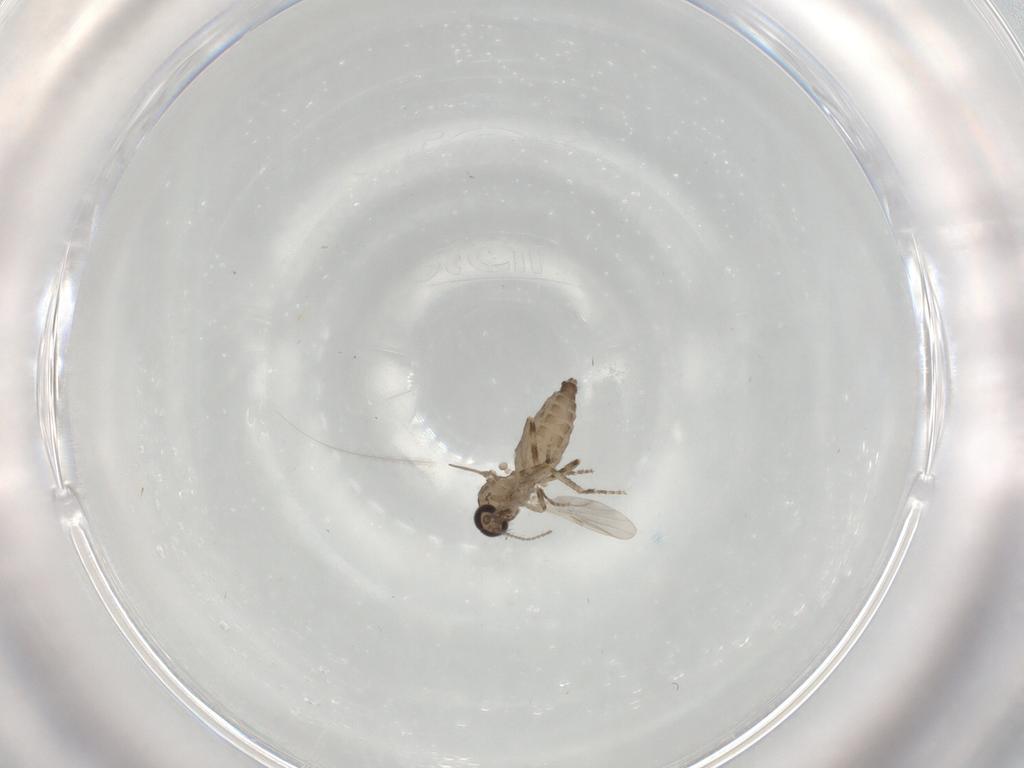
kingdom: Animalia
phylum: Arthropoda
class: Insecta
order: Diptera
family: Ceratopogonidae
